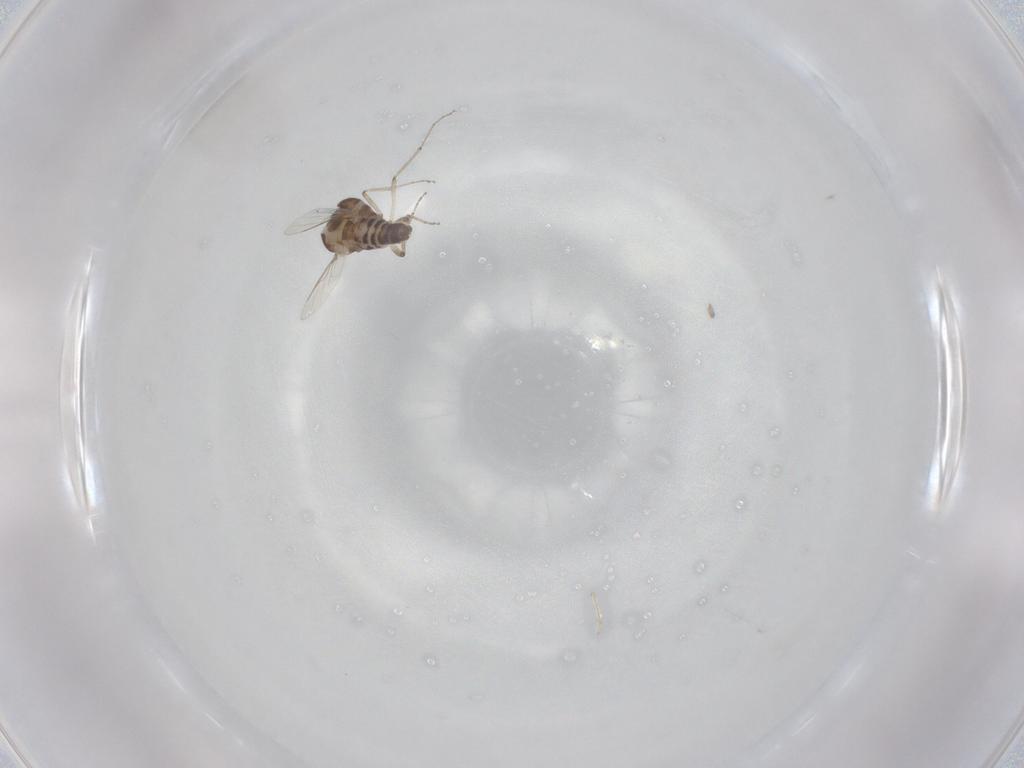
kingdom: Animalia
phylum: Arthropoda
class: Insecta
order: Diptera
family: Ceratopogonidae
